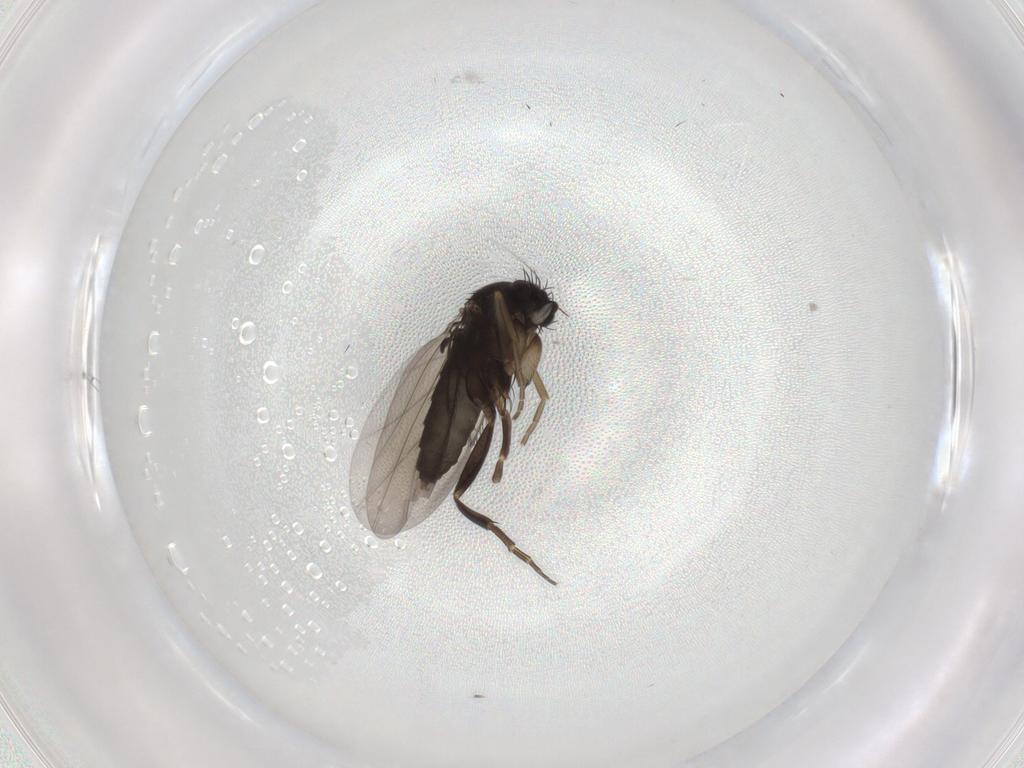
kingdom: Animalia
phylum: Arthropoda
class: Insecta
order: Diptera
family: Phoridae
